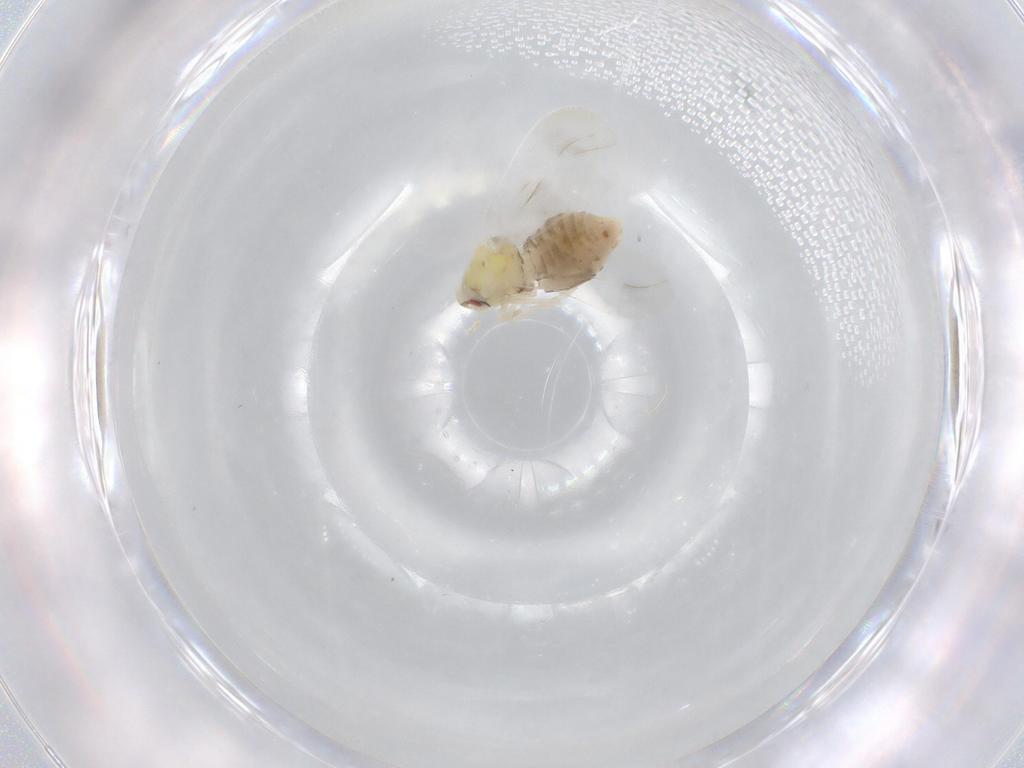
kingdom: Animalia
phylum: Arthropoda
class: Insecta
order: Hemiptera
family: Aleyrodidae
